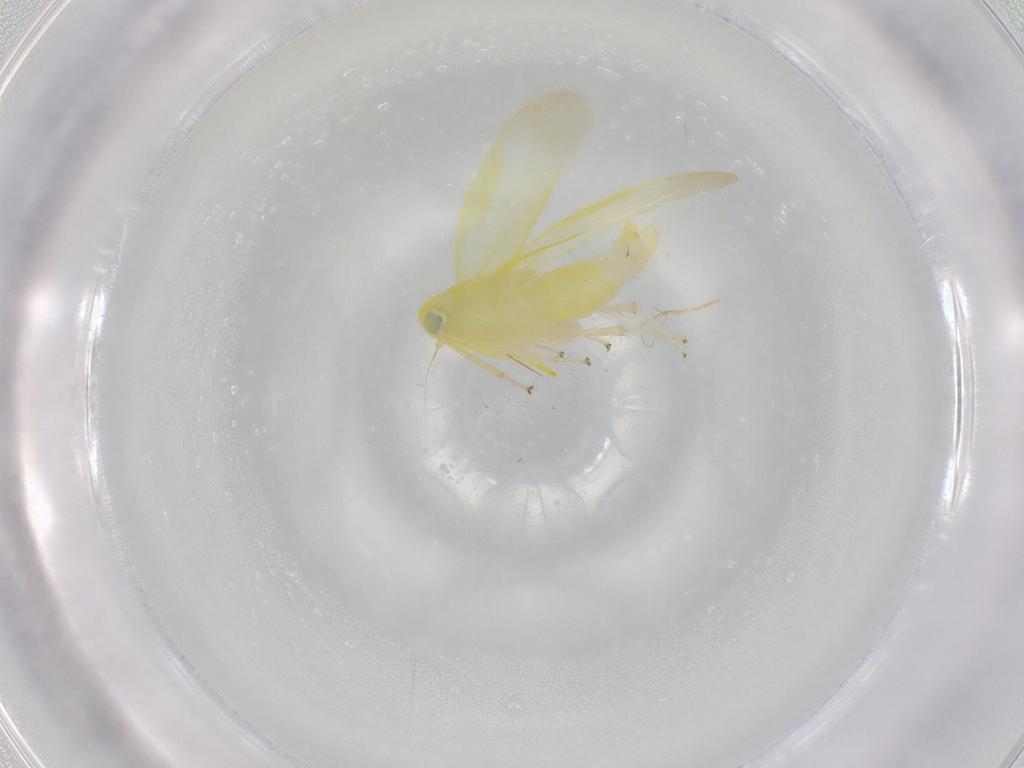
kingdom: Animalia
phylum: Arthropoda
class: Insecta
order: Hemiptera
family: Cicadellidae
